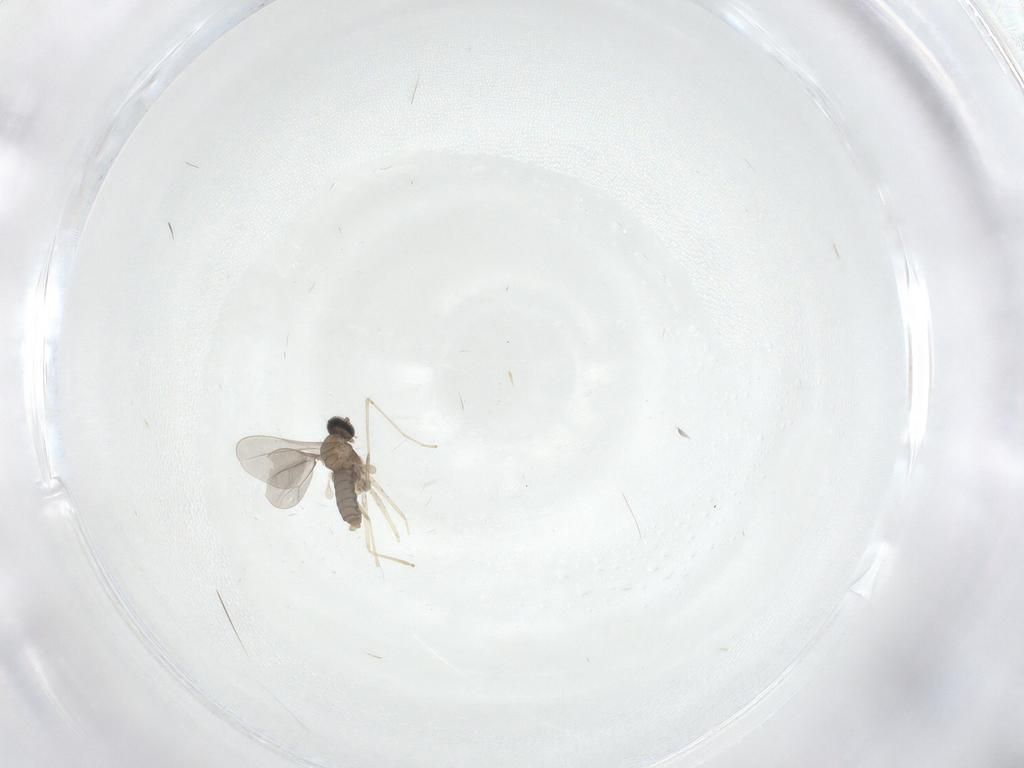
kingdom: Animalia
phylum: Arthropoda
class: Insecta
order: Diptera
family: Cecidomyiidae
